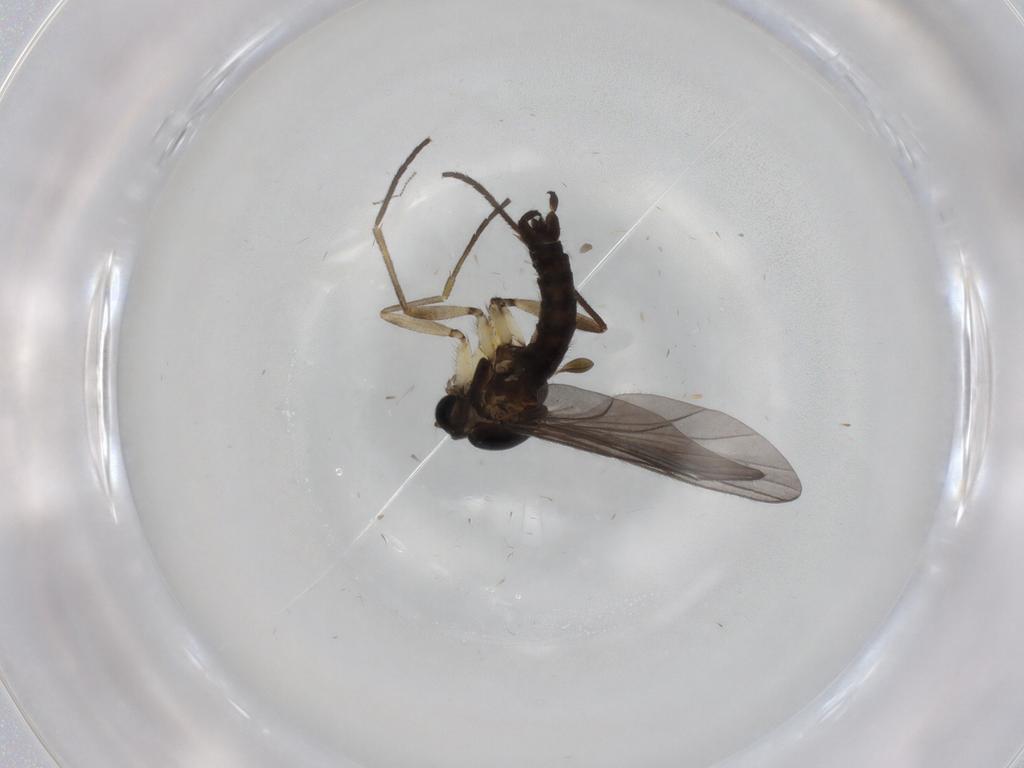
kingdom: Animalia
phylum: Arthropoda
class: Insecta
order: Diptera
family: Sciaridae
